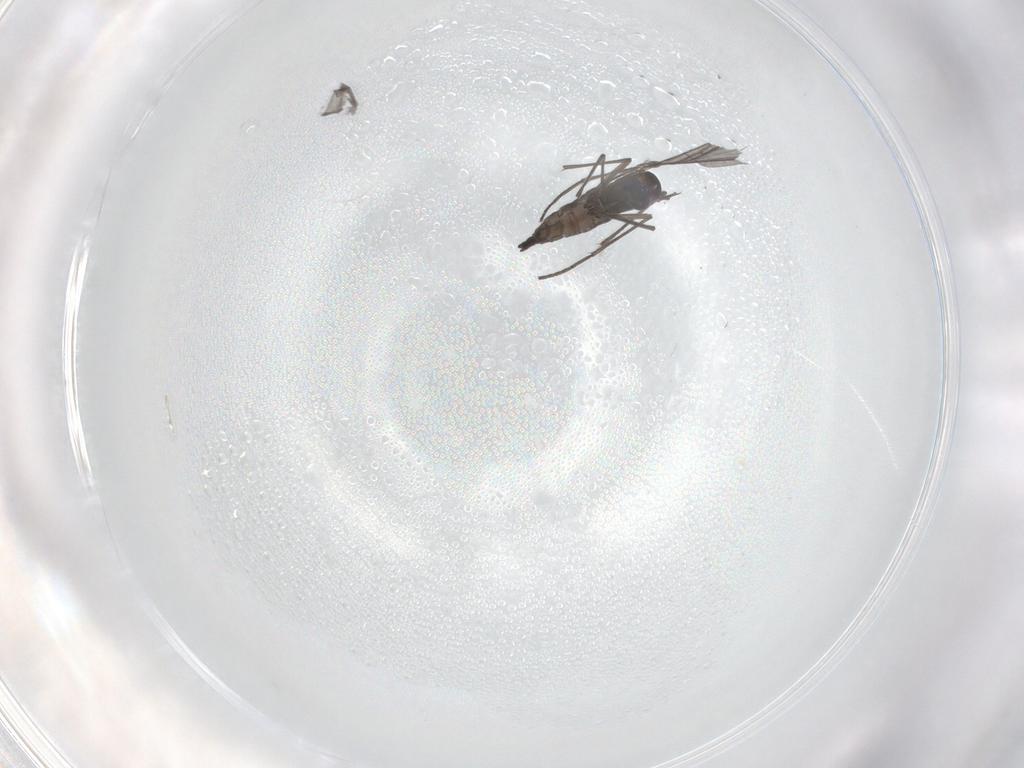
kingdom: Animalia
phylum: Arthropoda
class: Insecta
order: Diptera
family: Sciaridae
